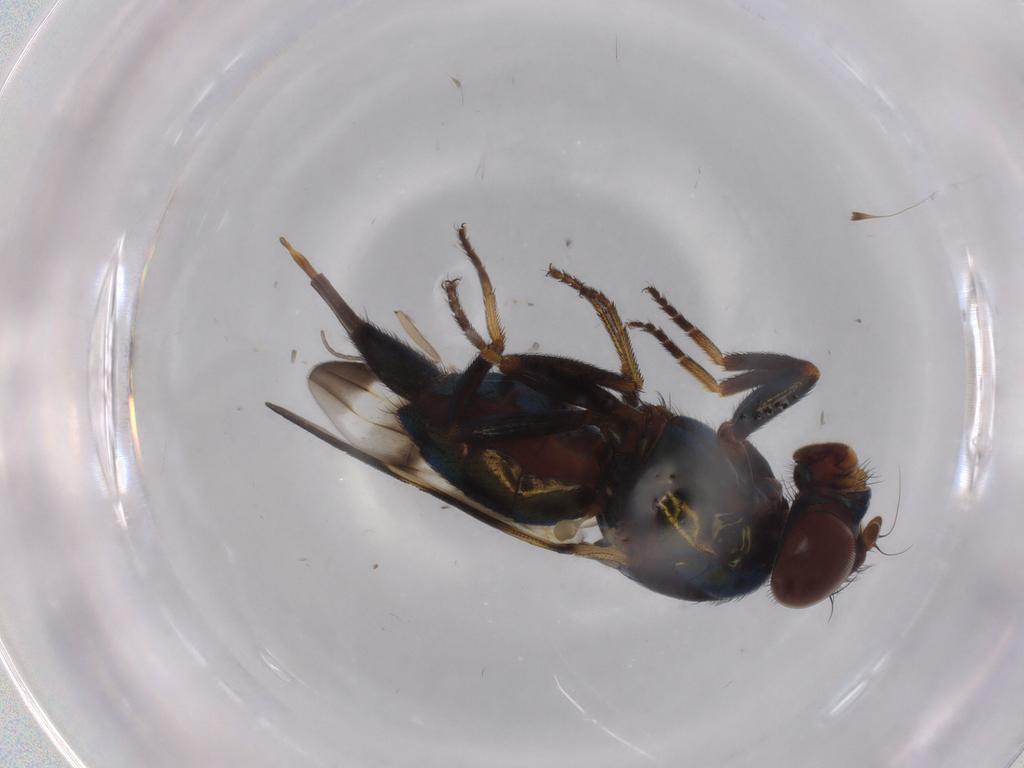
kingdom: Animalia
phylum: Arthropoda
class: Insecta
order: Diptera
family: Ulidiidae
